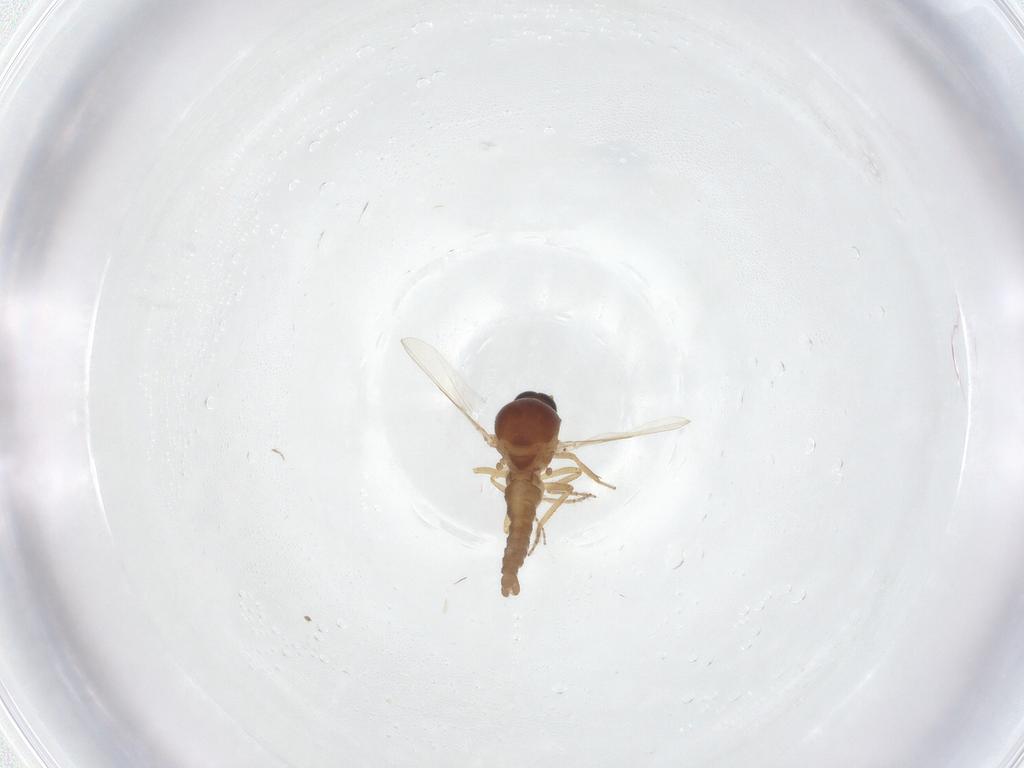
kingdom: Animalia
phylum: Arthropoda
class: Insecta
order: Diptera
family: Ceratopogonidae
